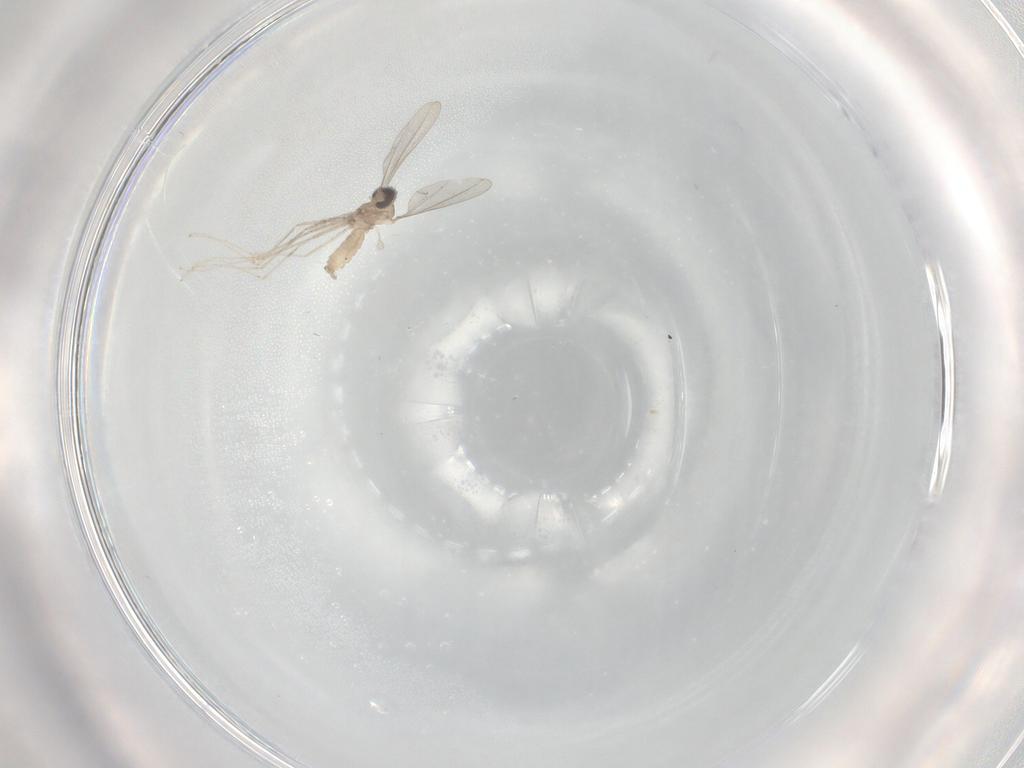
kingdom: Animalia
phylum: Arthropoda
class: Insecta
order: Diptera
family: Cecidomyiidae
